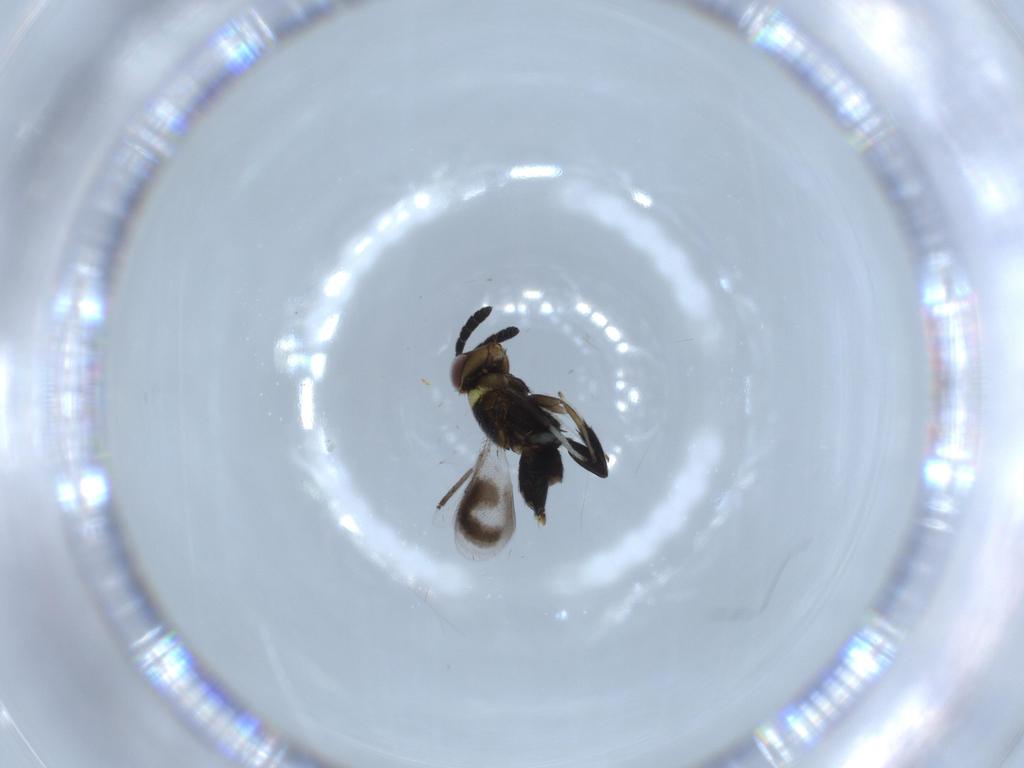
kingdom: Animalia
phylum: Arthropoda
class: Insecta
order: Hymenoptera
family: Aphelinidae
